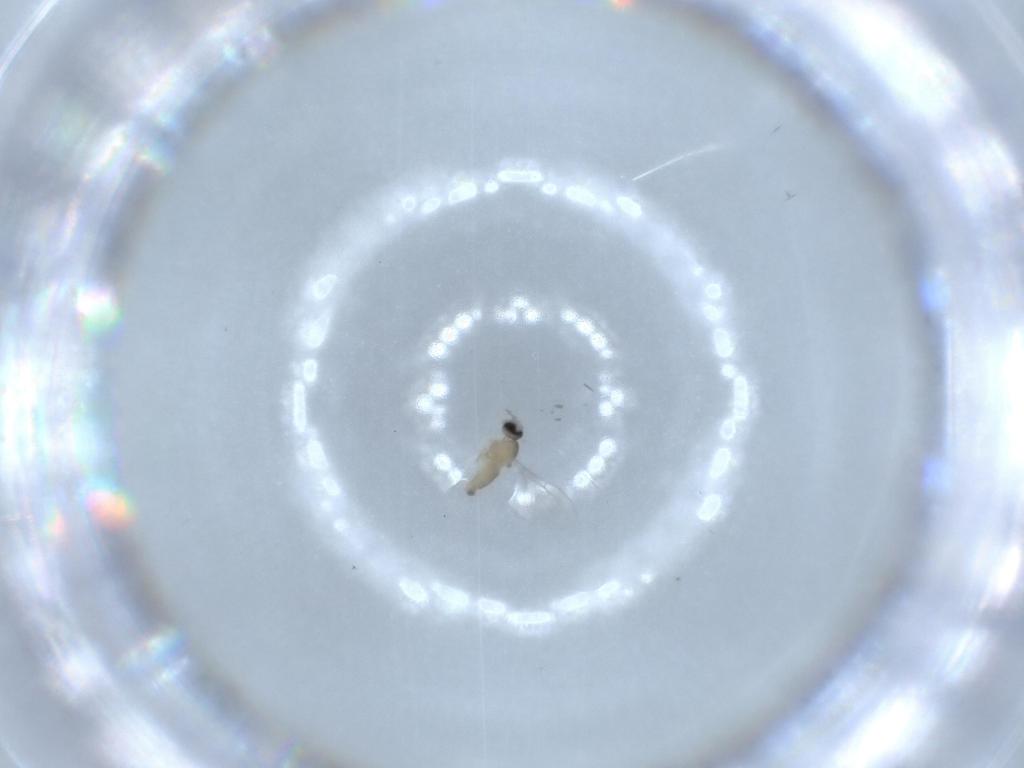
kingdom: Animalia
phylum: Arthropoda
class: Insecta
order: Diptera
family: Cecidomyiidae
